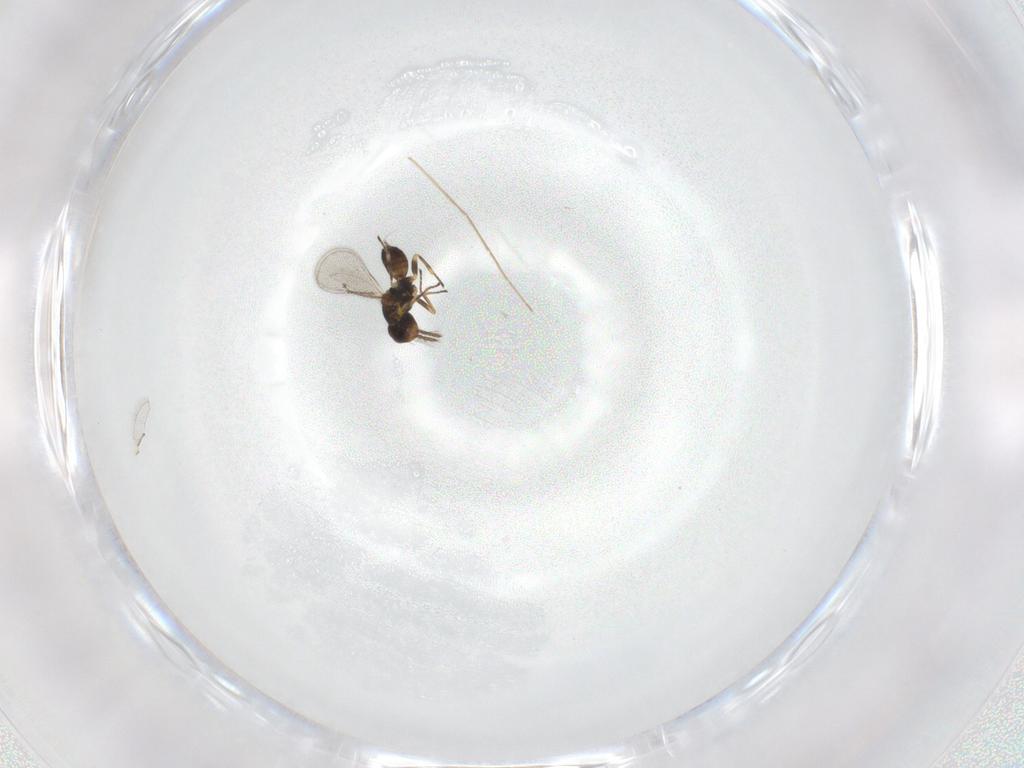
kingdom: Animalia
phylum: Arthropoda
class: Insecta
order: Hymenoptera
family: Eulophidae
